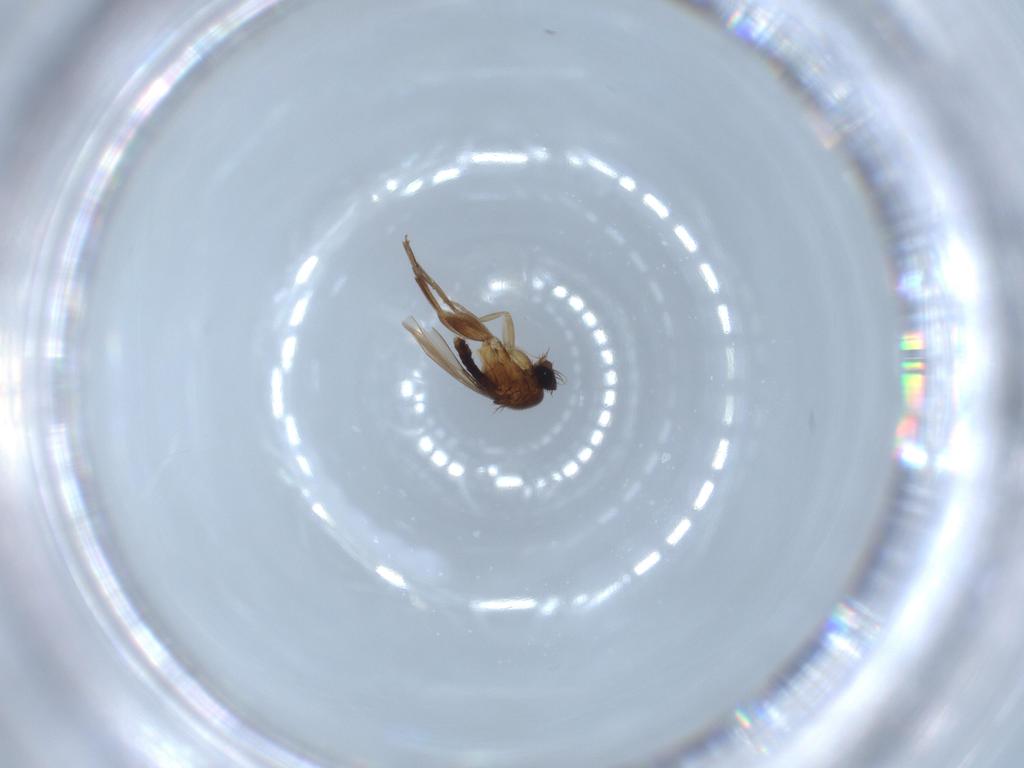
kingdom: Animalia
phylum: Arthropoda
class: Insecta
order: Diptera
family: Phoridae
